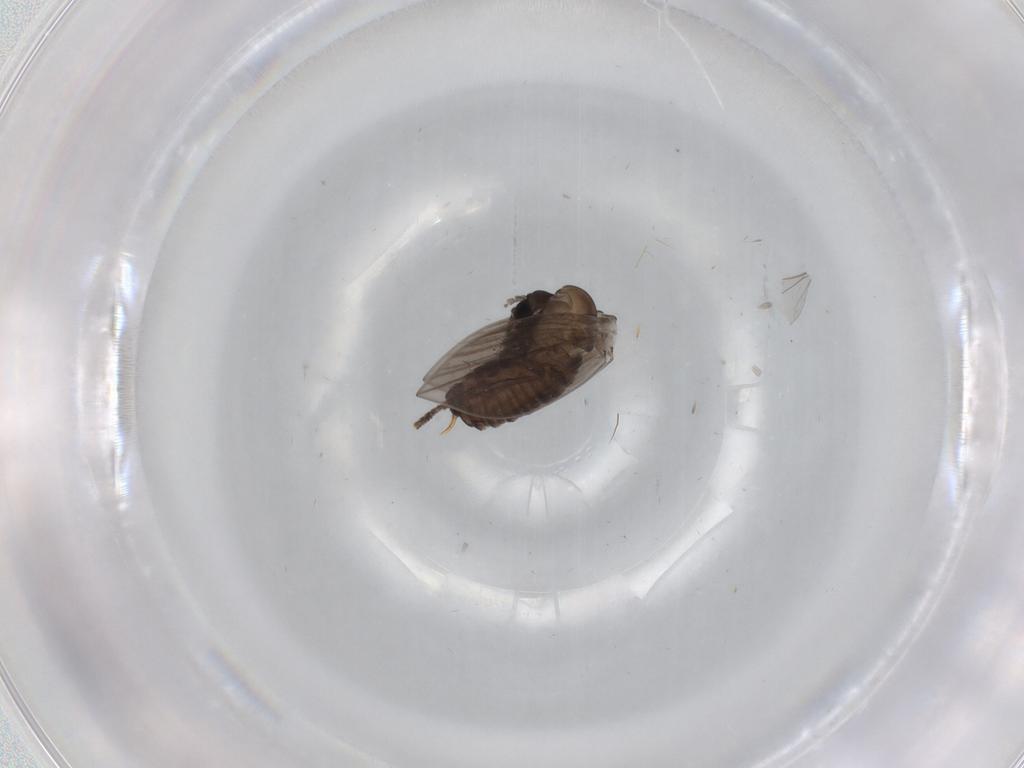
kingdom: Animalia
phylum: Arthropoda
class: Insecta
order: Diptera
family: Psychodidae
